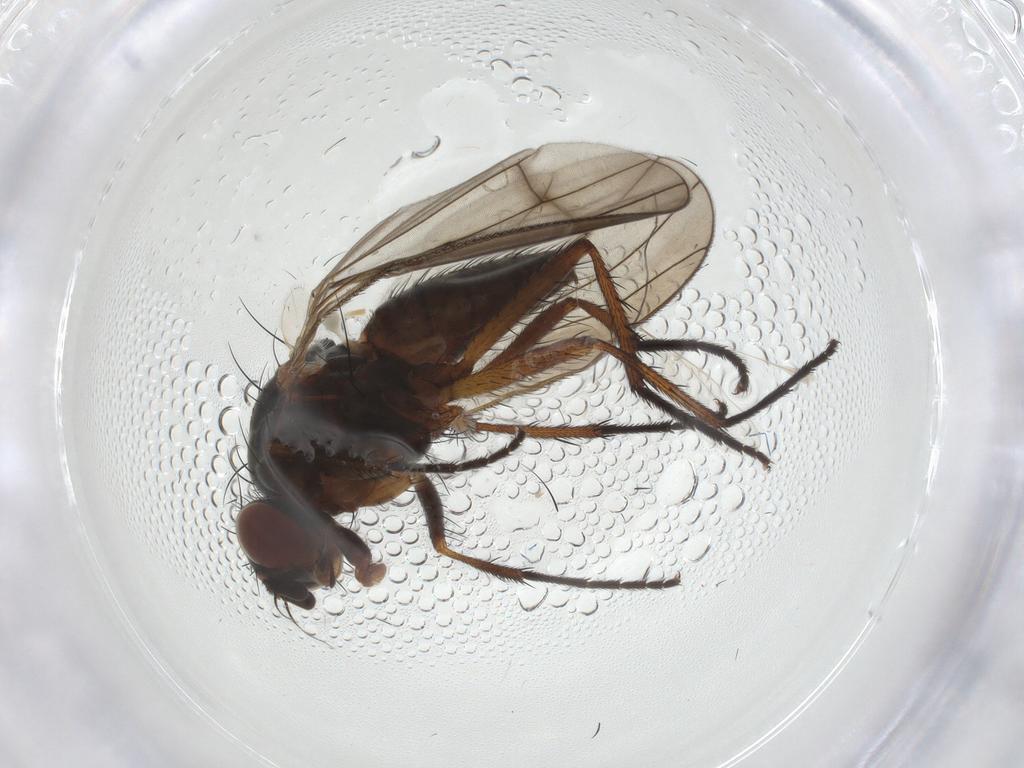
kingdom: Animalia
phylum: Arthropoda
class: Insecta
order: Diptera
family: Anthomyiidae
